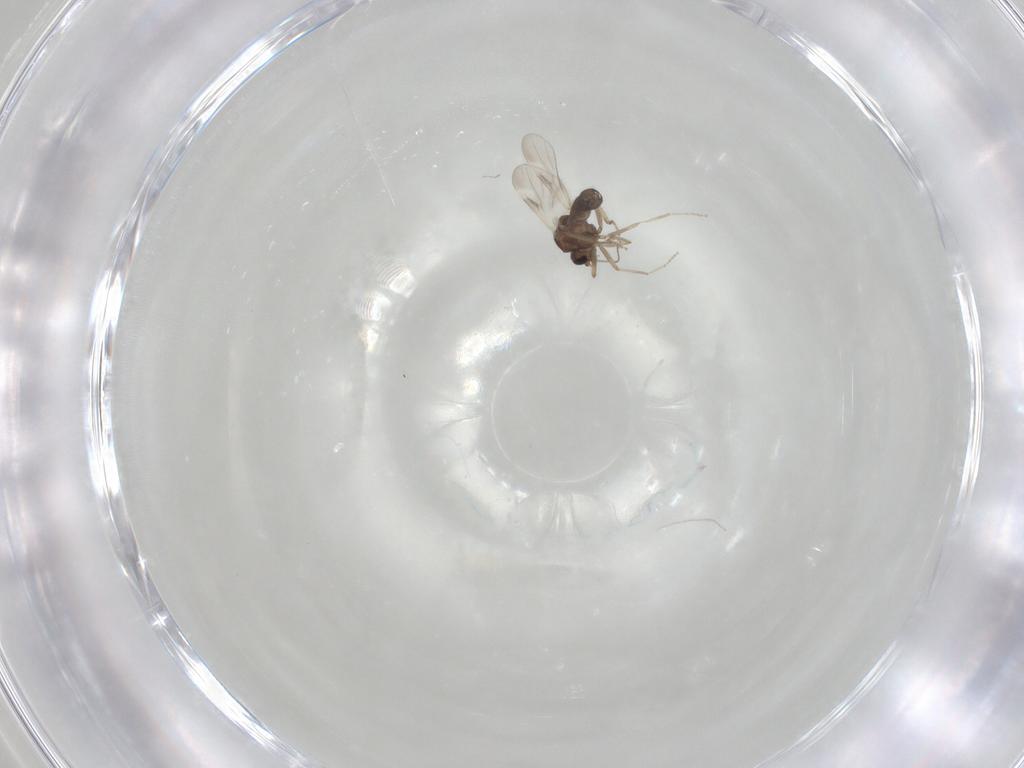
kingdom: Animalia
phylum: Arthropoda
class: Insecta
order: Diptera
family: Ceratopogonidae
